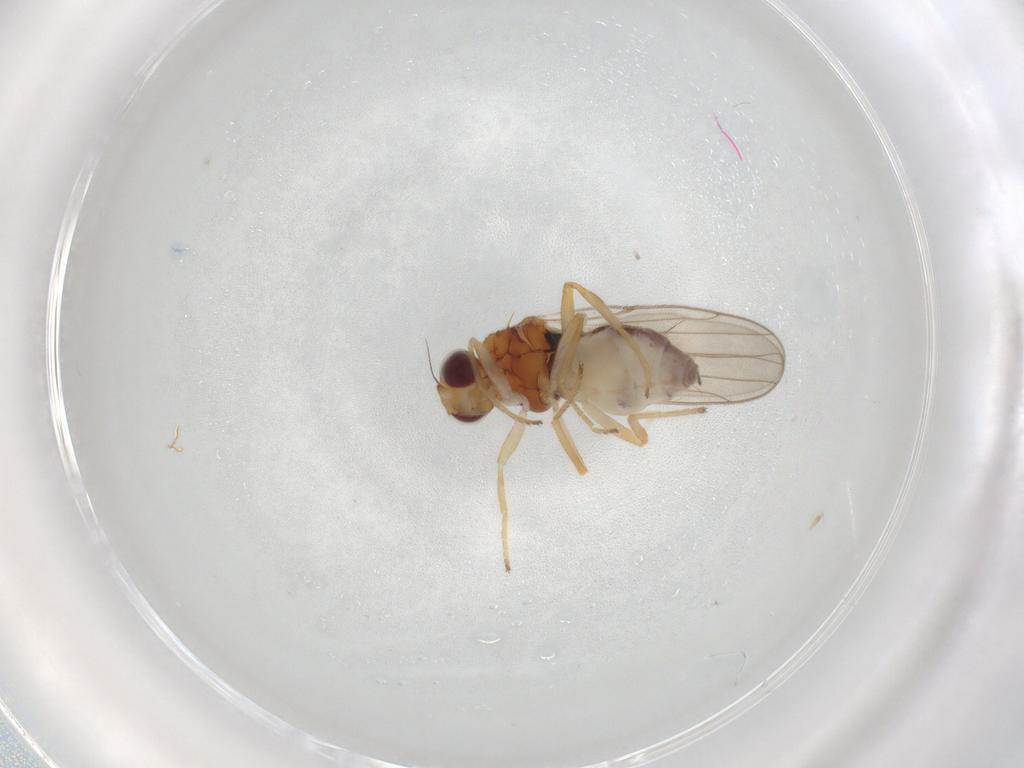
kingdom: Animalia
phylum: Arthropoda
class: Insecta
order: Diptera
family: Chloropidae
